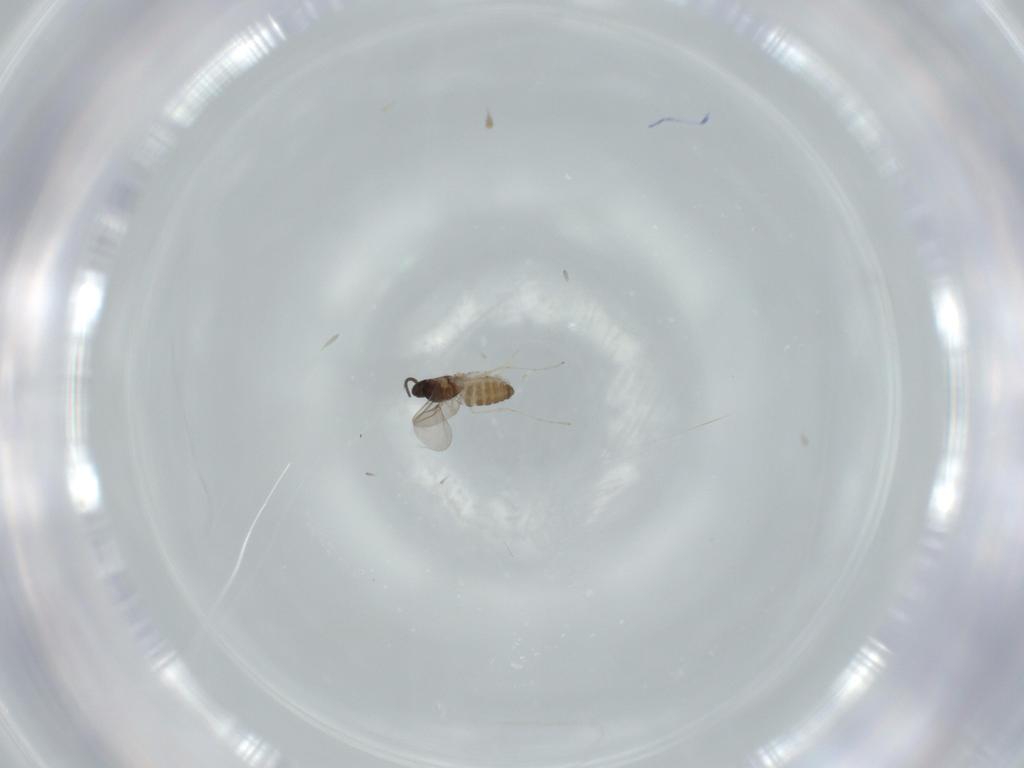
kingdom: Animalia
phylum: Arthropoda
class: Insecta
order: Diptera
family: Cecidomyiidae
